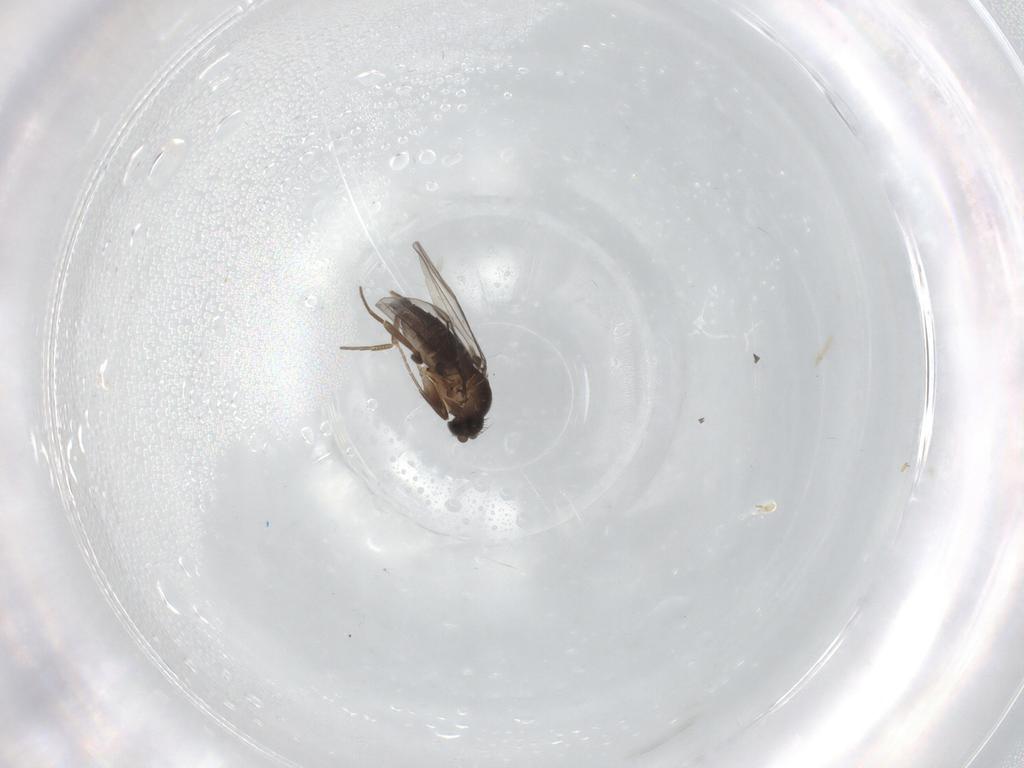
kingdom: Animalia
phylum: Arthropoda
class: Insecta
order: Diptera
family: Phoridae
